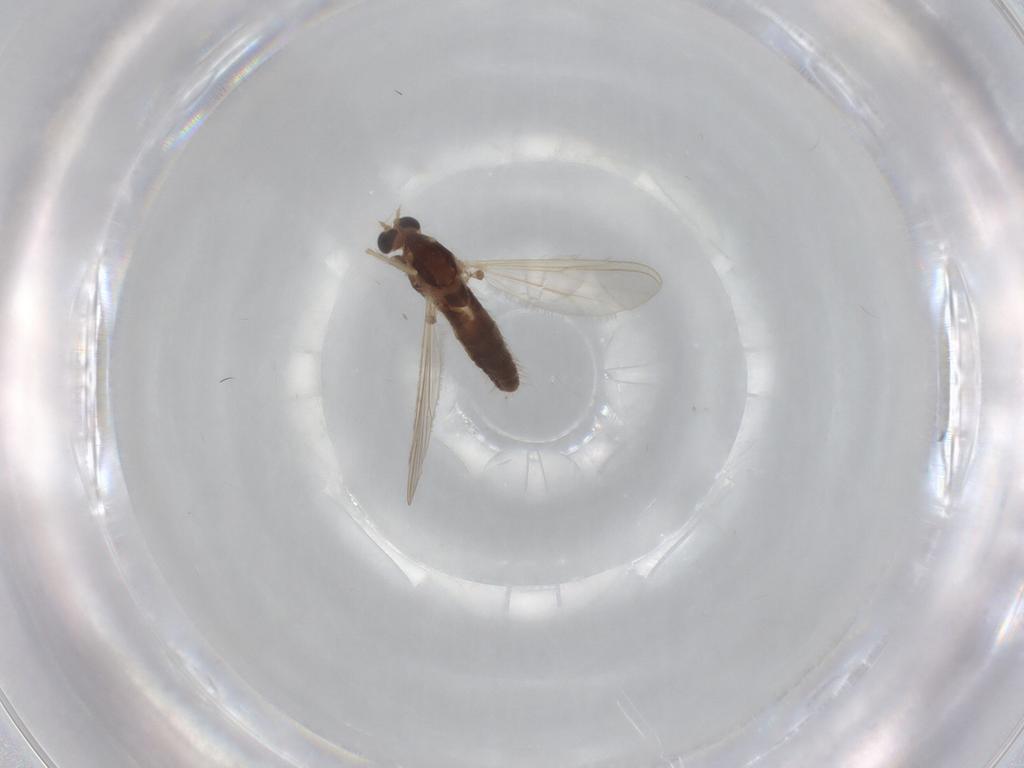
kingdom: Animalia
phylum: Arthropoda
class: Insecta
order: Diptera
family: Chironomidae
